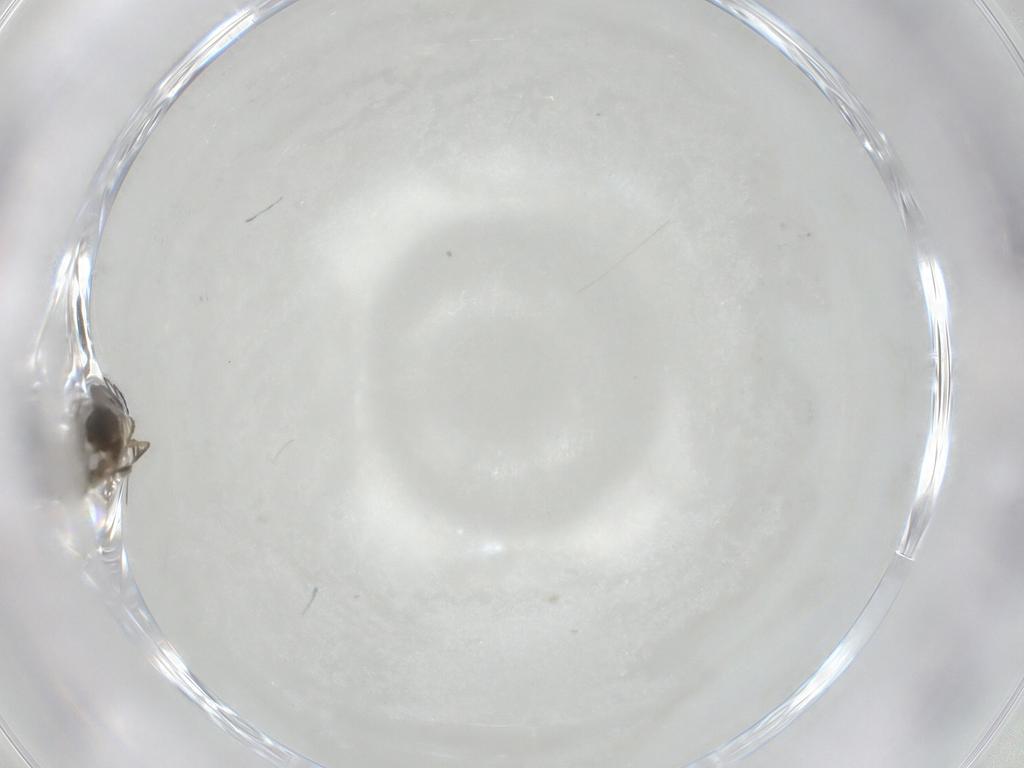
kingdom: Animalia
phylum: Arthropoda
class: Insecta
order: Hymenoptera
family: Encyrtidae
